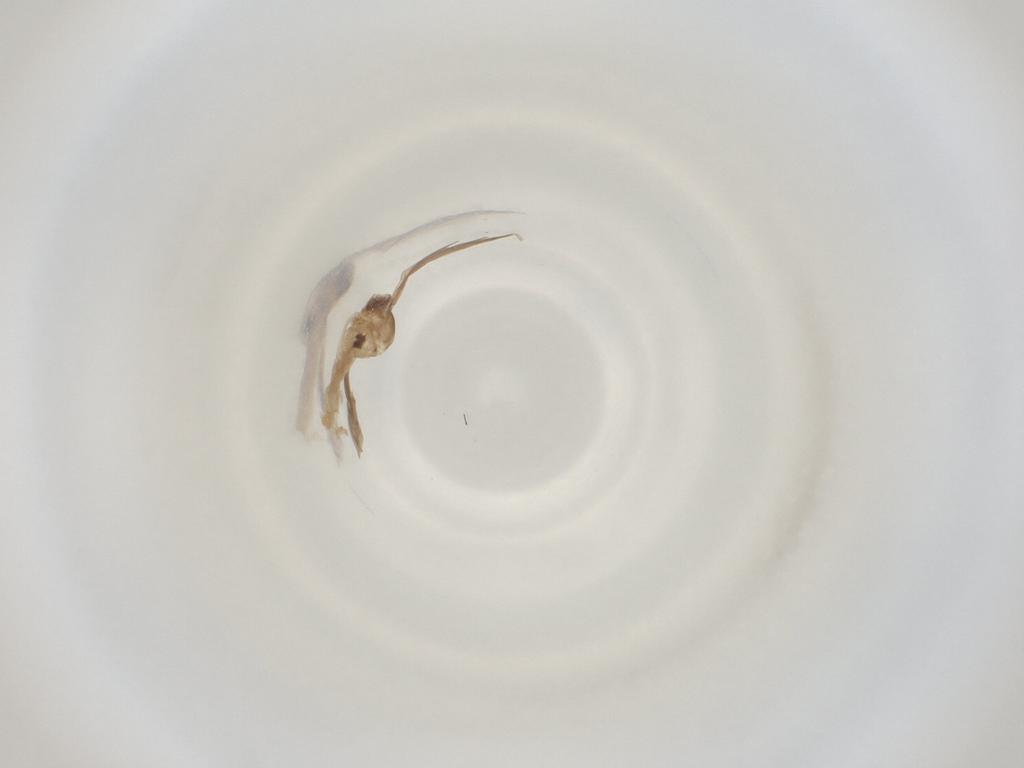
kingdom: Animalia
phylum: Arthropoda
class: Insecta
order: Diptera
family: Cecidomyiidae
